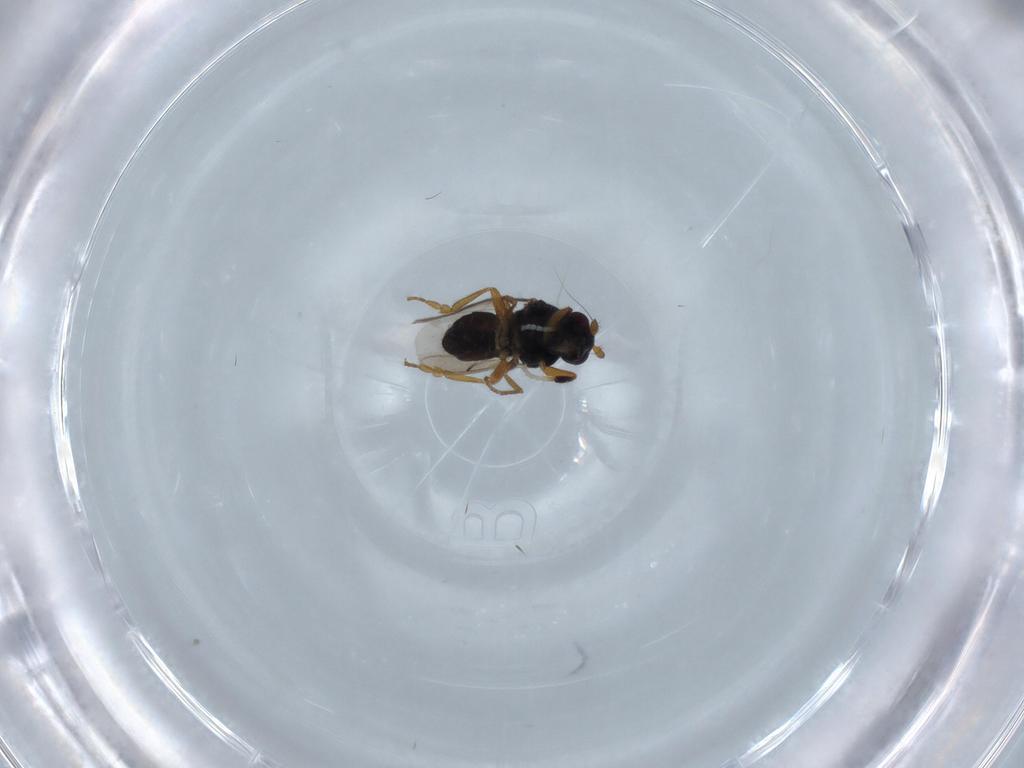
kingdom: Animalia
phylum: Arthropoda
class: Insecta
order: Diptera
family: Sphaeroceridae
